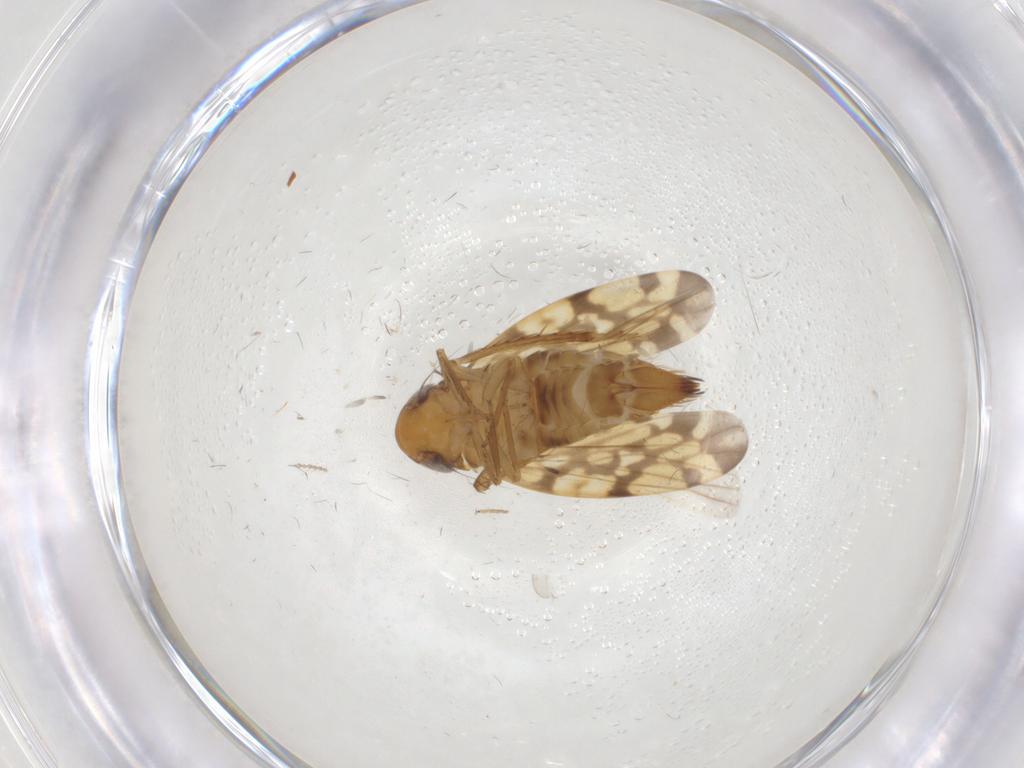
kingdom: Animalia
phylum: Arthropoda
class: Insecta
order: Hemiptera
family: Cicadellidae
